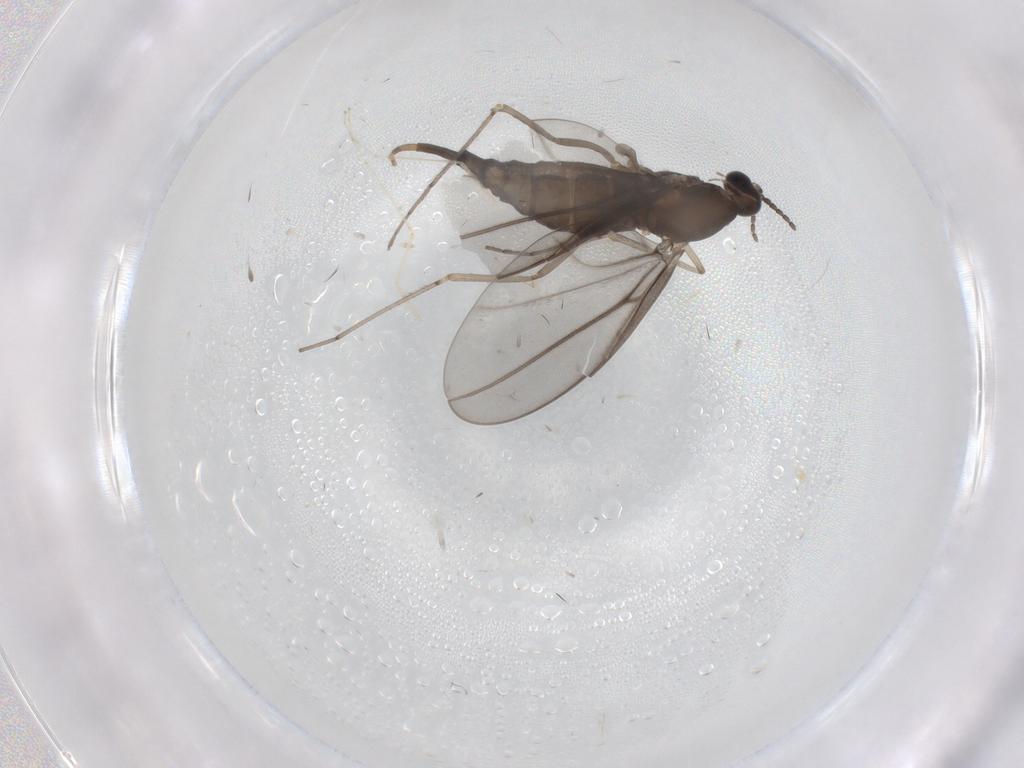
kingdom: Animalia
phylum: Arthropoda
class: Insecta
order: Diptera
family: Cecidomyiidae
